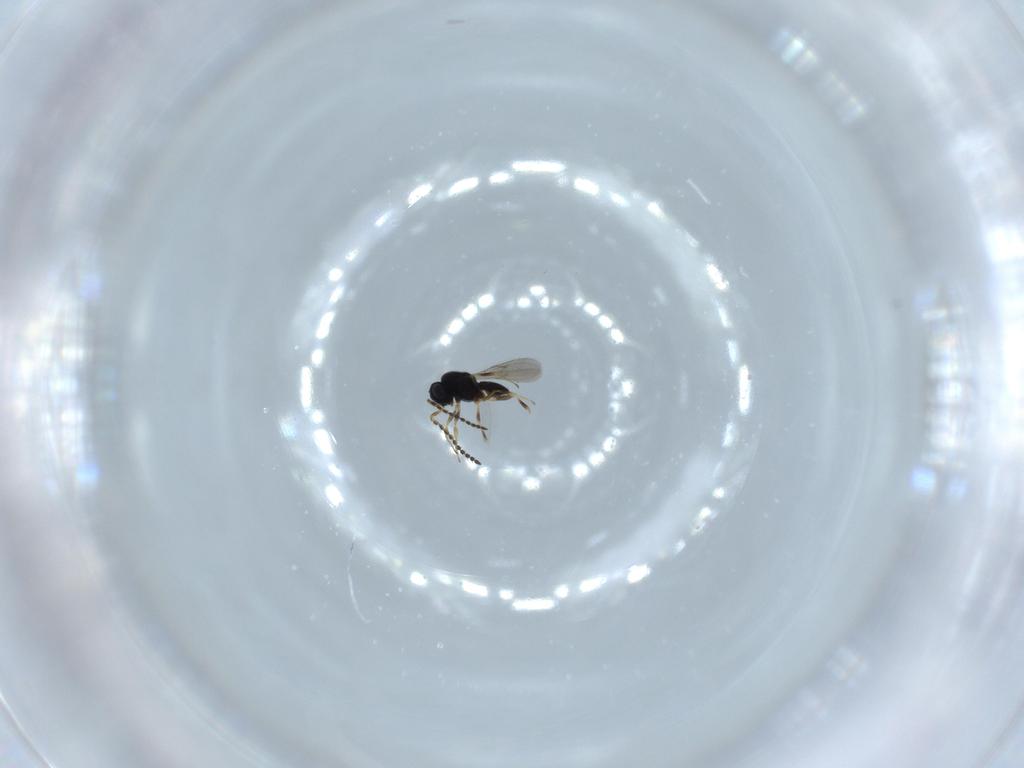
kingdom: Animalia
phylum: Arthropoda
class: Insecta
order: Hymenoptera
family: Scelionidae
